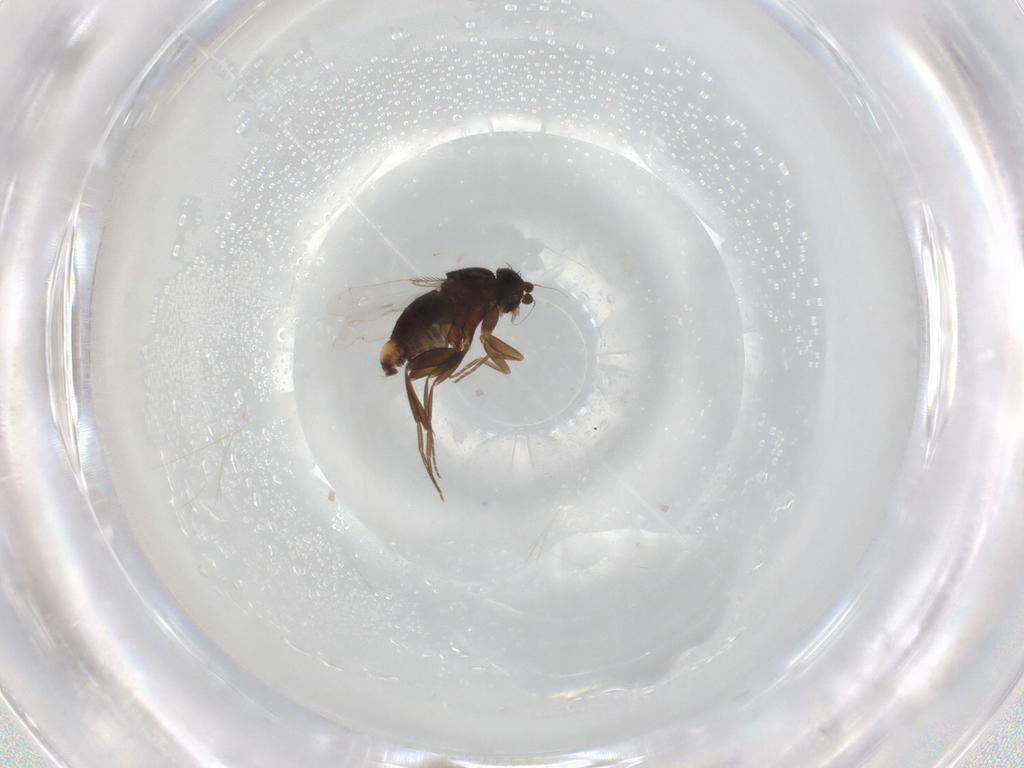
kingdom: Animalia
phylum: Arthropoda
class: Insecta
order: Diptera
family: Phoridae
